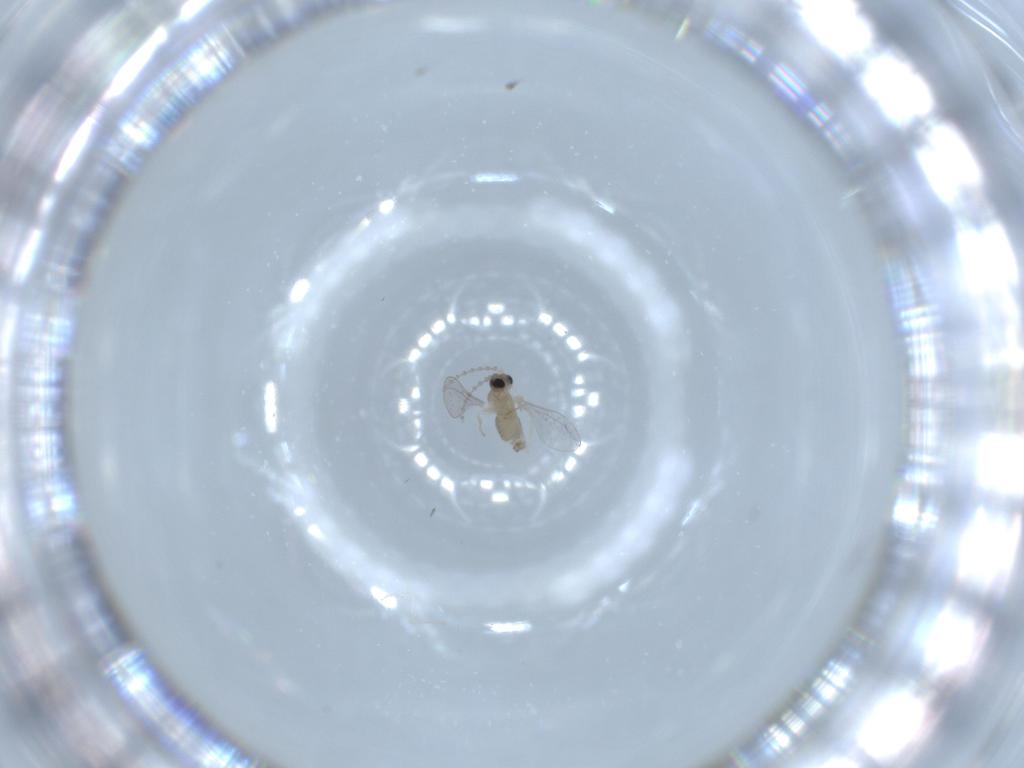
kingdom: Animalia
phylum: Arthropoda
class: Insecta
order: Diptera
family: Cecidomyiidae
